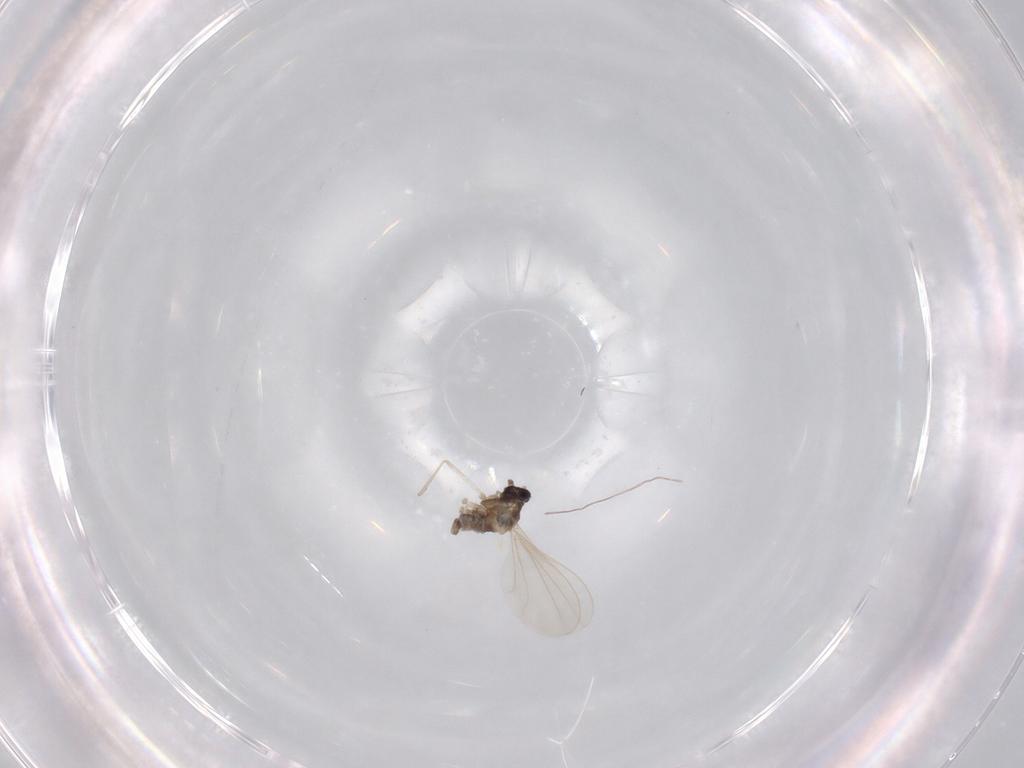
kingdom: Animalia
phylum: Arthropoda
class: Insecta
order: Diptera
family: Cecidomyiidae
